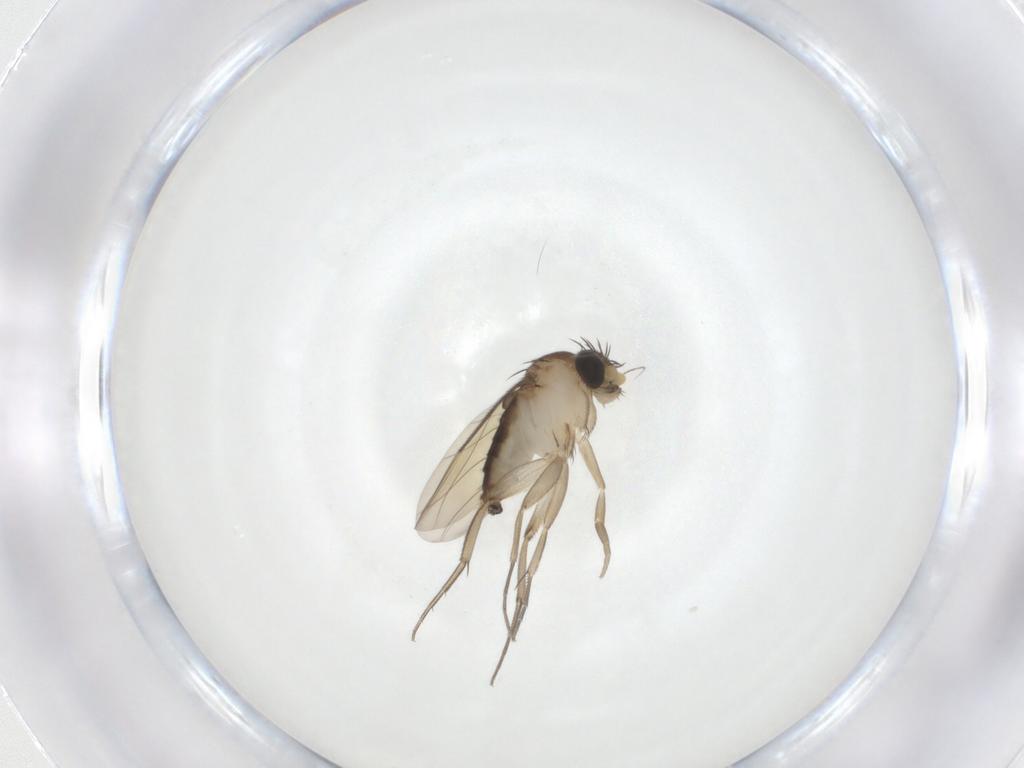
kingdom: Animalia
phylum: Arthropoda
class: Insecta
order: Diptera
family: Phoridae
